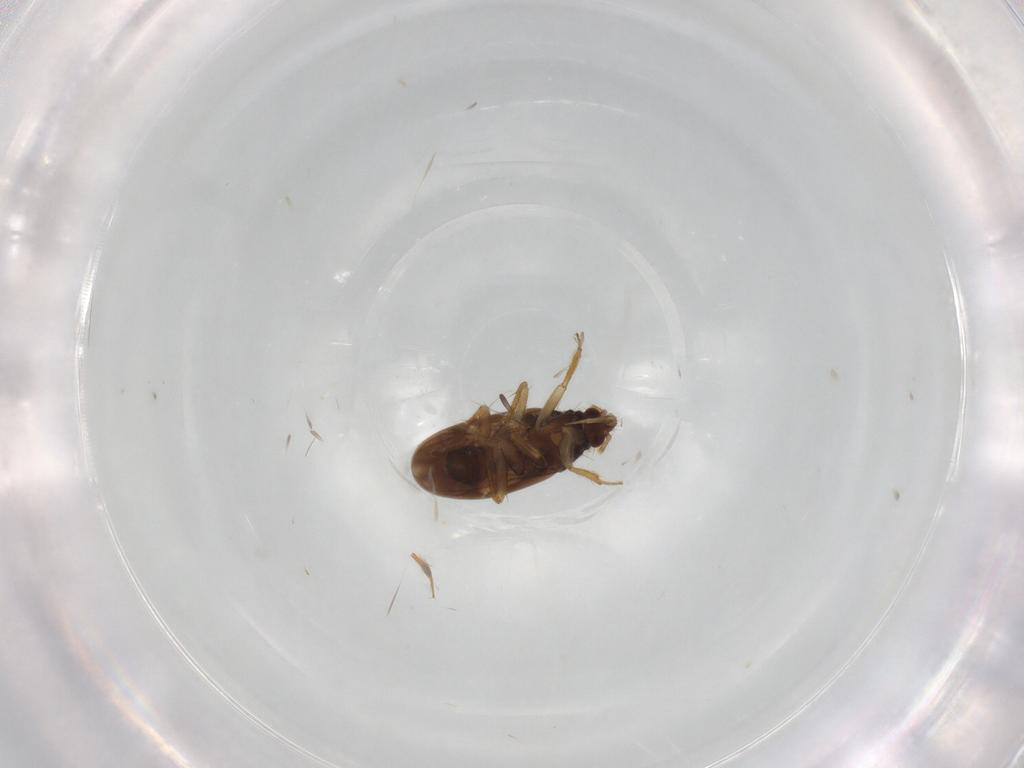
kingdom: Animalia
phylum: Arthropoda
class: Insecta
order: Hemiptera
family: Ceratocombidae
